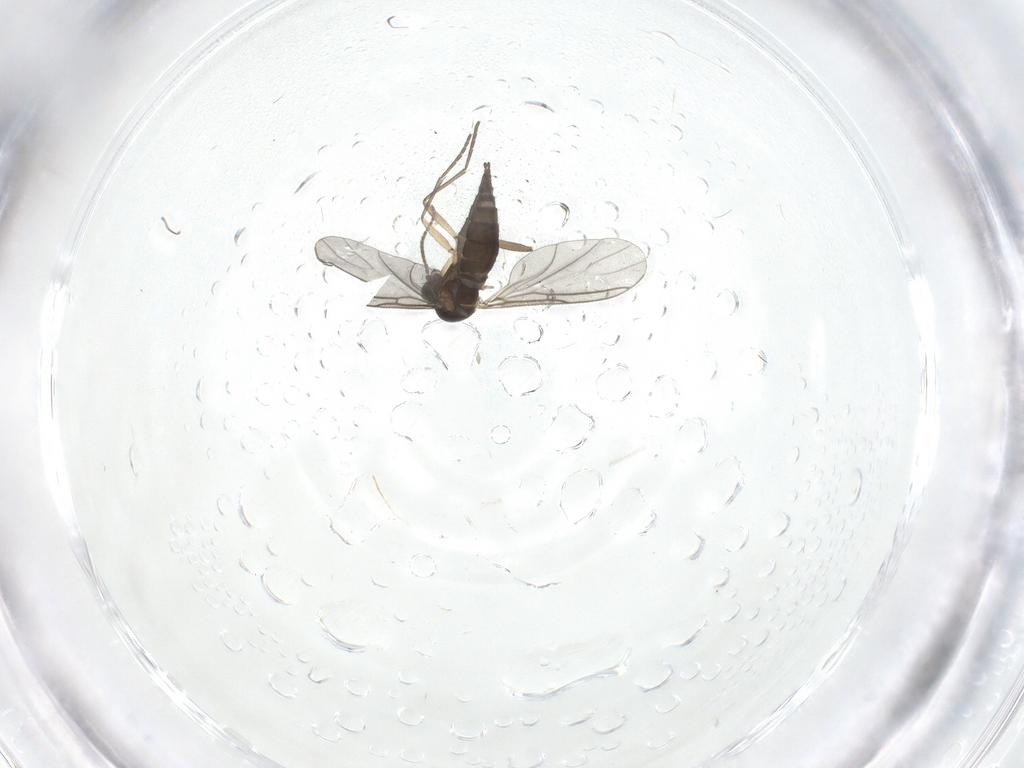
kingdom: Animalia
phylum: Arthropoda
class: Insecta
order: Diptera
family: Sciaridae
